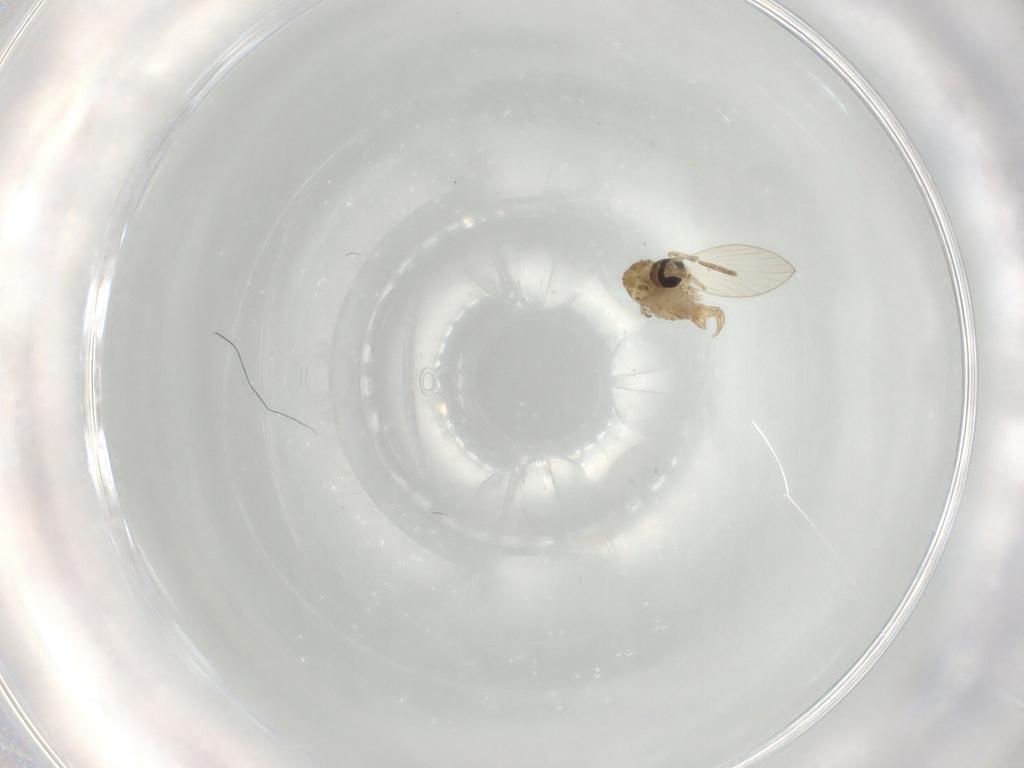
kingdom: Animalia
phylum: Arthropoda
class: Insecta
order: Diptera
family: Psychodidae
